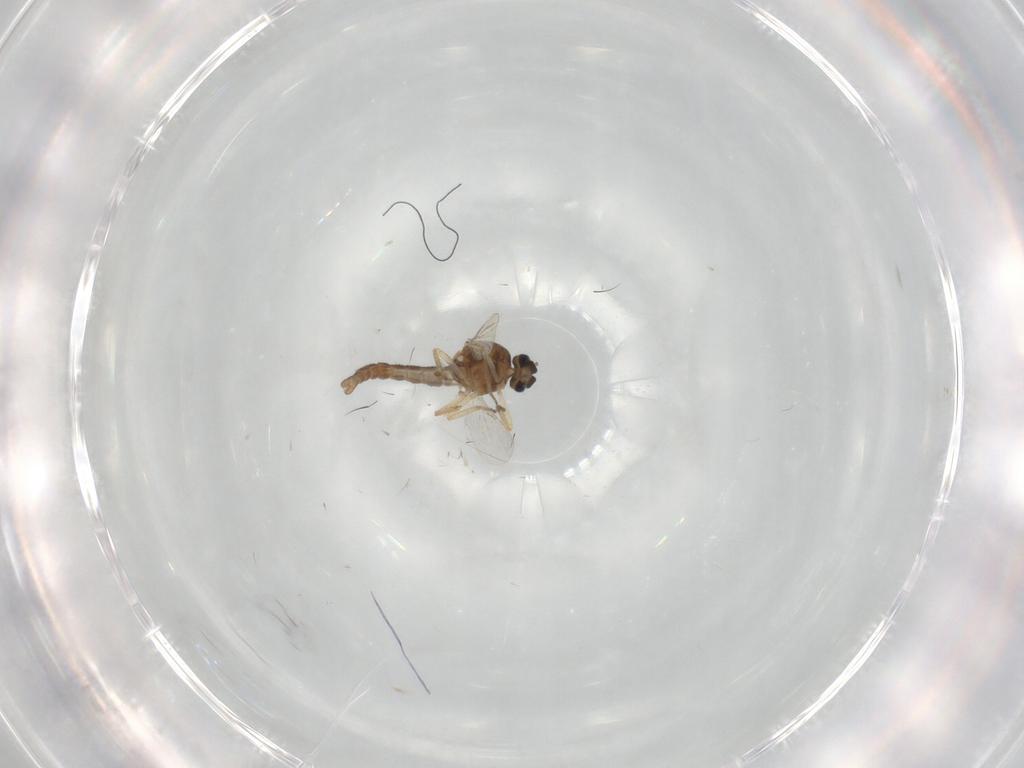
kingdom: Animalia
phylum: Arthropoda
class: Insecta
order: Diptera
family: Ceratopogonidae
